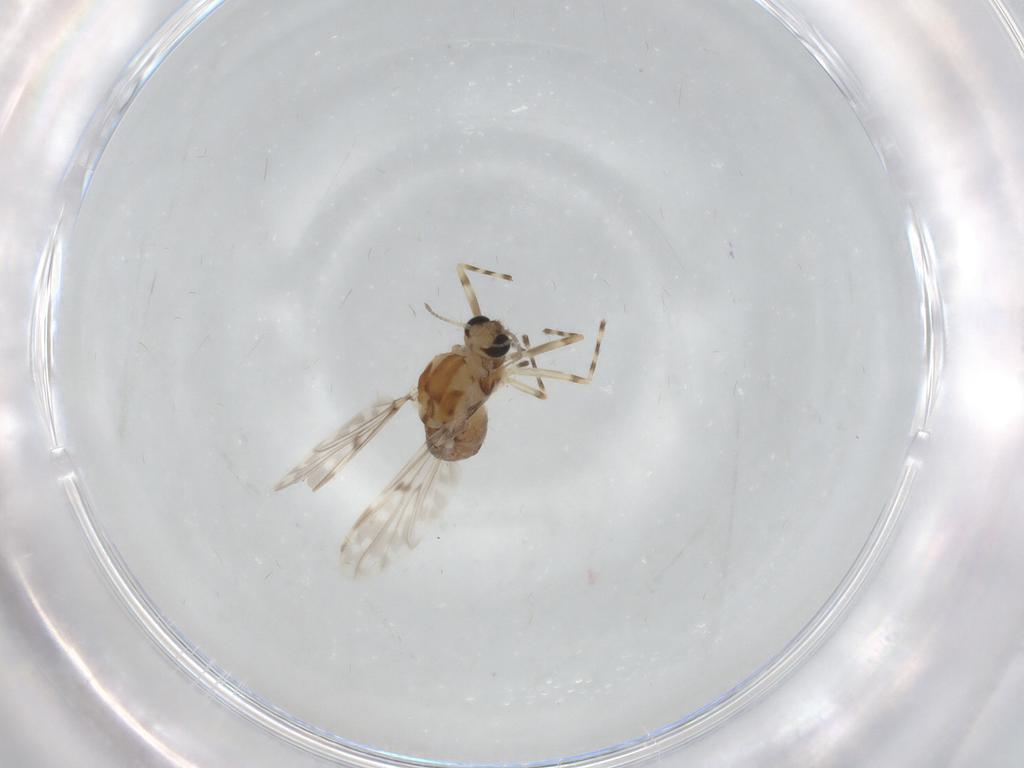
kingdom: Animalia
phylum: Arthropoda
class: Insecta
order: Diptera
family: Chironomidae
